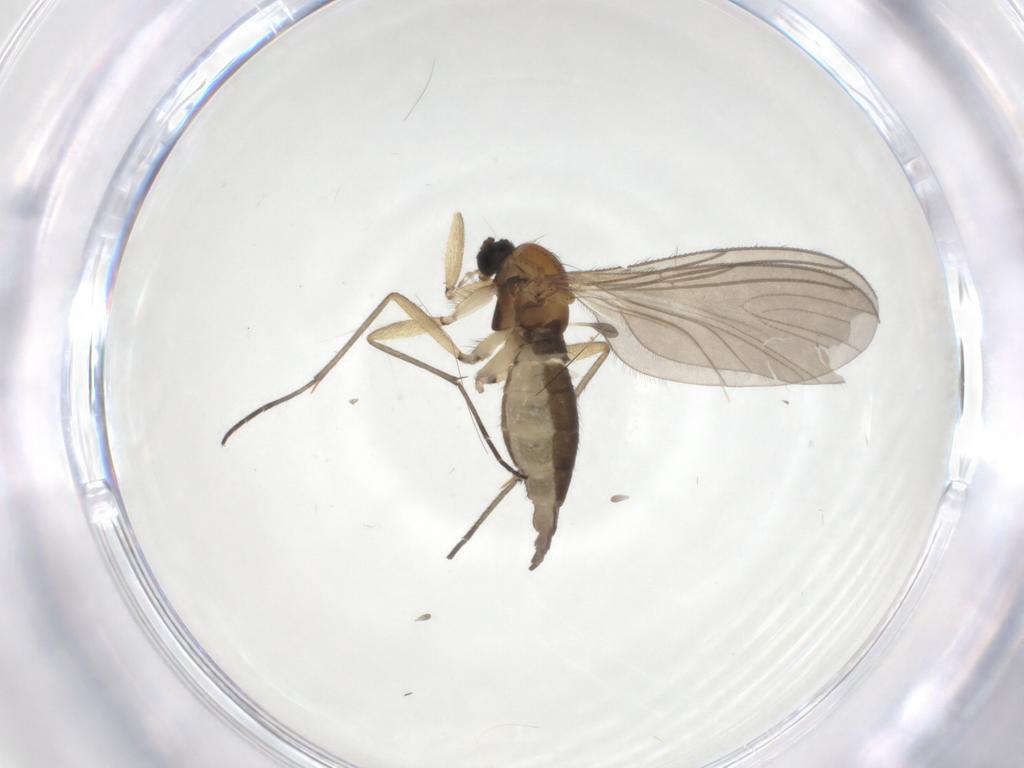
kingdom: Animalia
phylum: Arthropoda
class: Insecta
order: Diptera
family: Sciaridae
